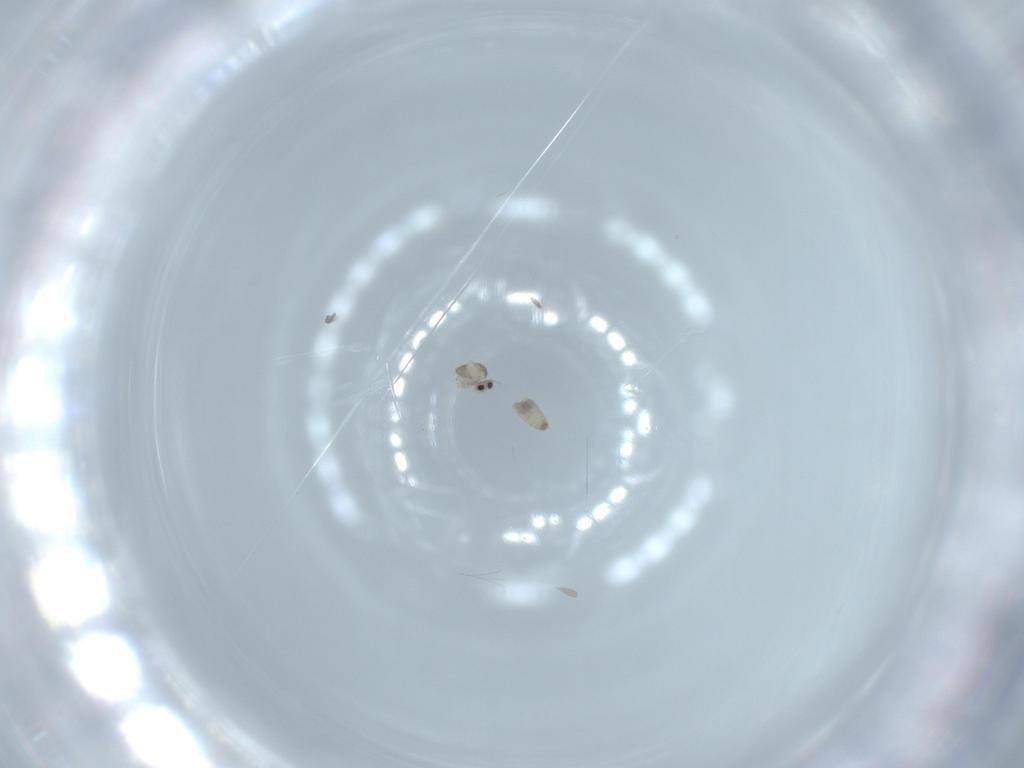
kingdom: Animalia
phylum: Arthropoda
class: Insecta
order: Diptera
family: Cecidomyiidae
